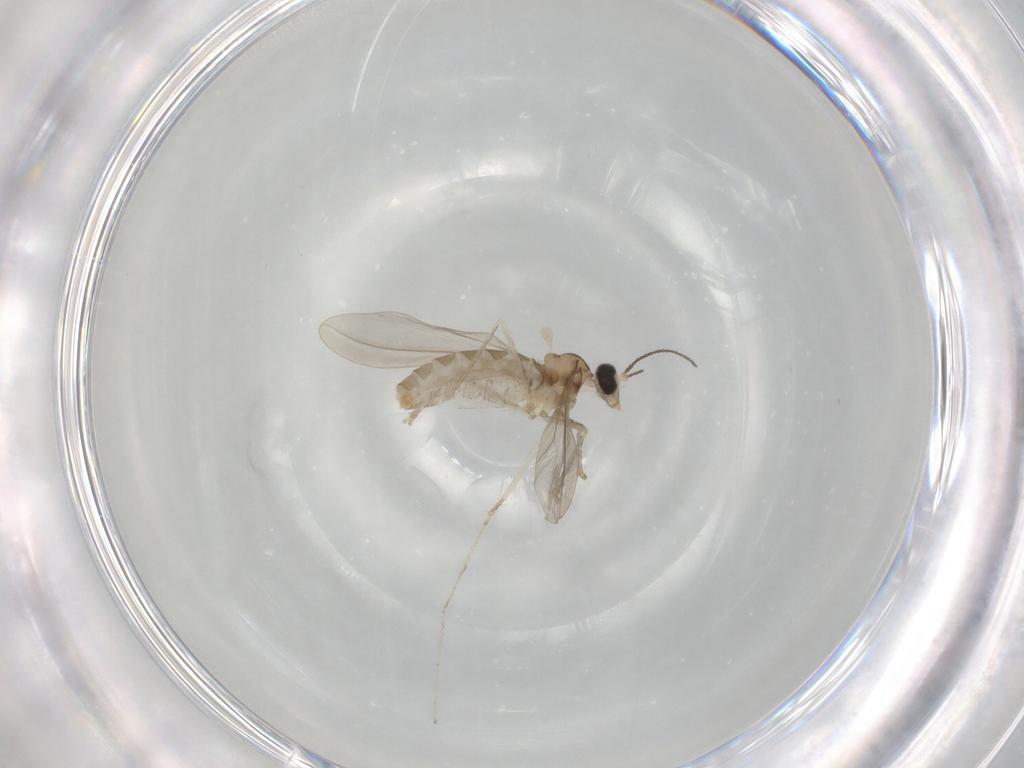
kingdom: Animalia
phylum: Arthropoda
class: Insecta
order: Diptera
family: Cecidomyiidae
